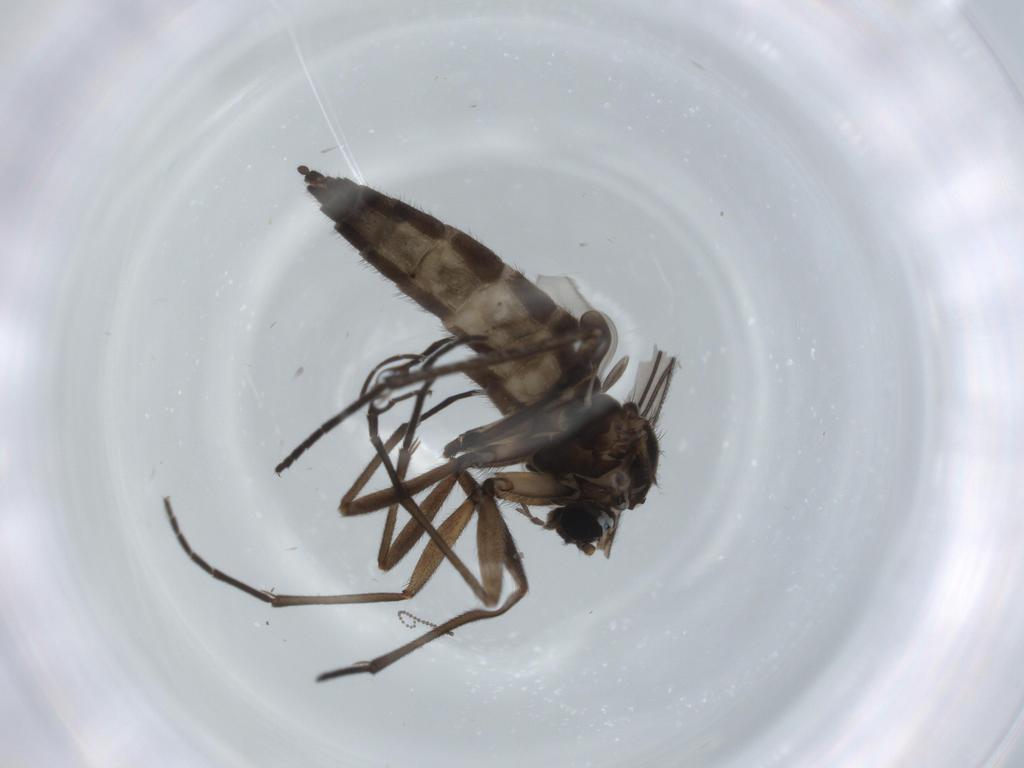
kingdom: Animalia
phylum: Arthropoda
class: Insecta
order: Diptera
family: Sciaridae
